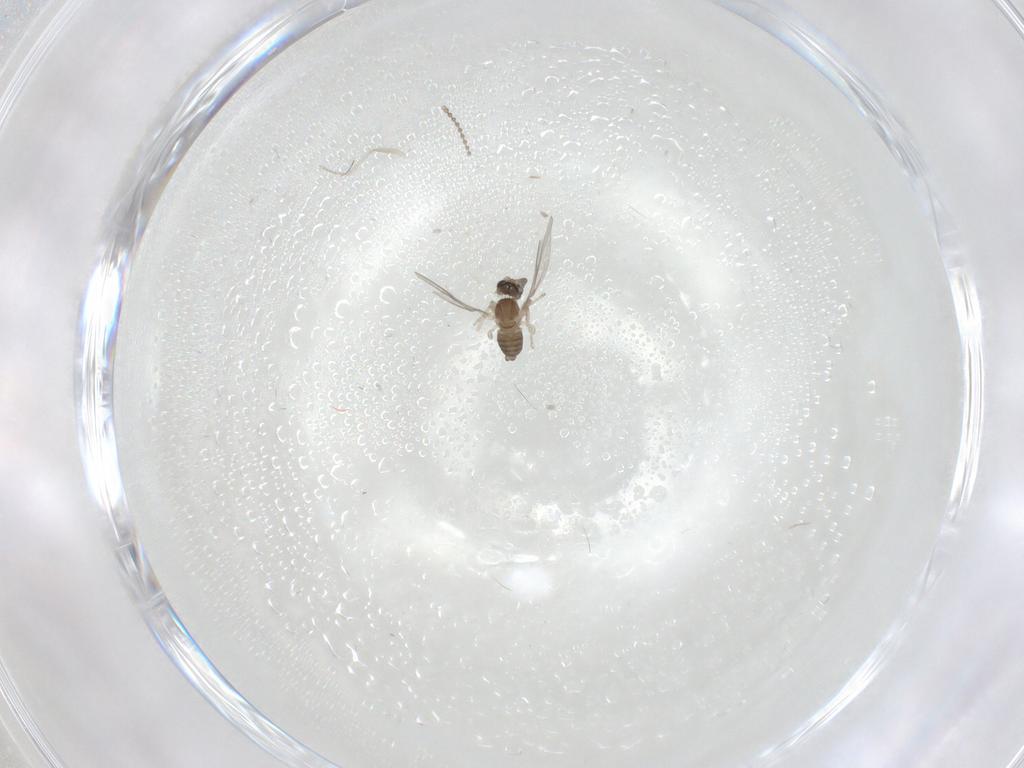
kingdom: Animalia
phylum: Arthropoda
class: Insecta
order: Diptera
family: Cecidomyiidae
